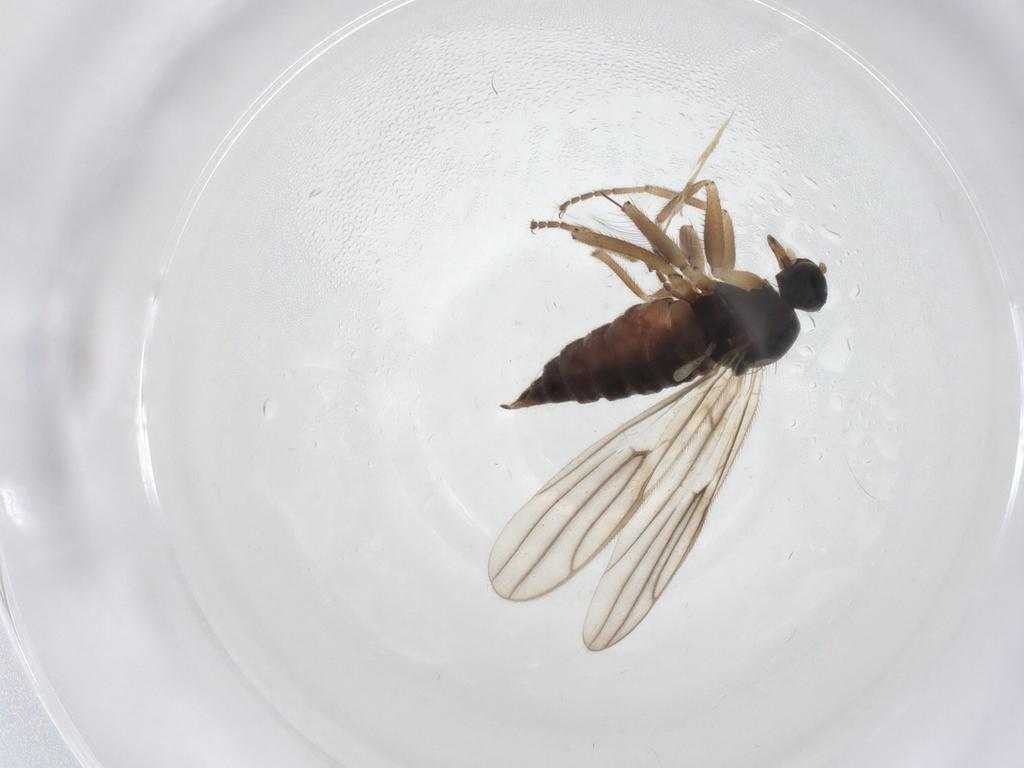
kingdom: Animalia
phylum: Arthropoda
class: Insecta
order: Diptera
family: Hybotidae
